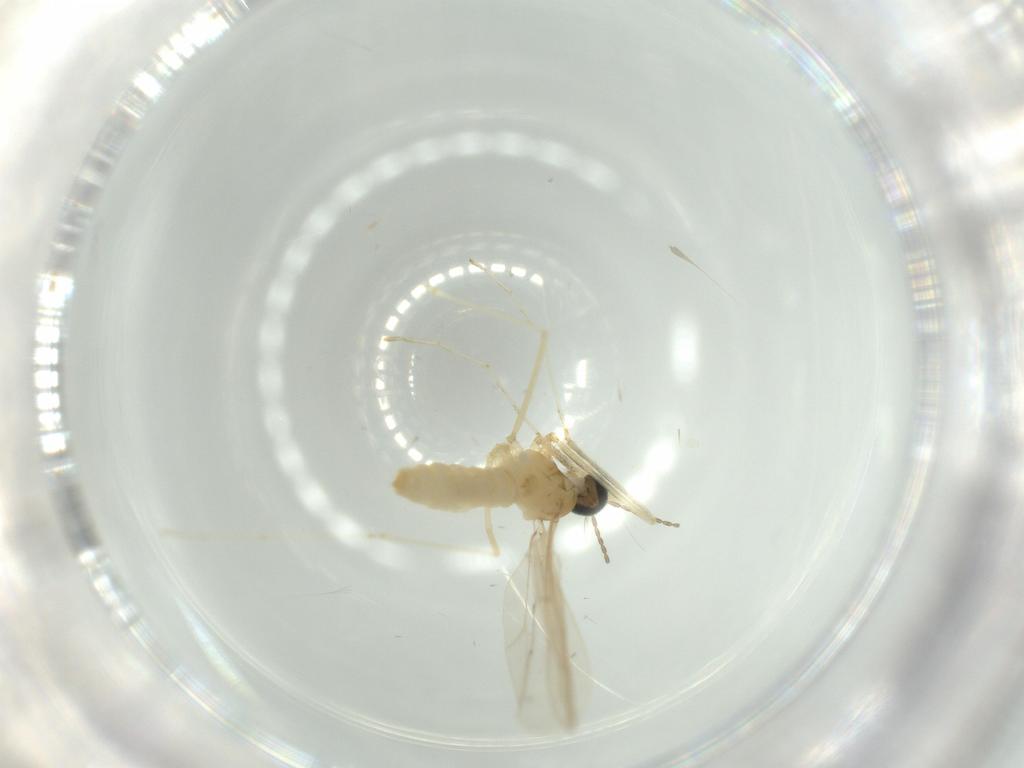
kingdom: Animalia
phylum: Arthropoda
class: Insecta
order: Diptera
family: Cecidomyiidae
